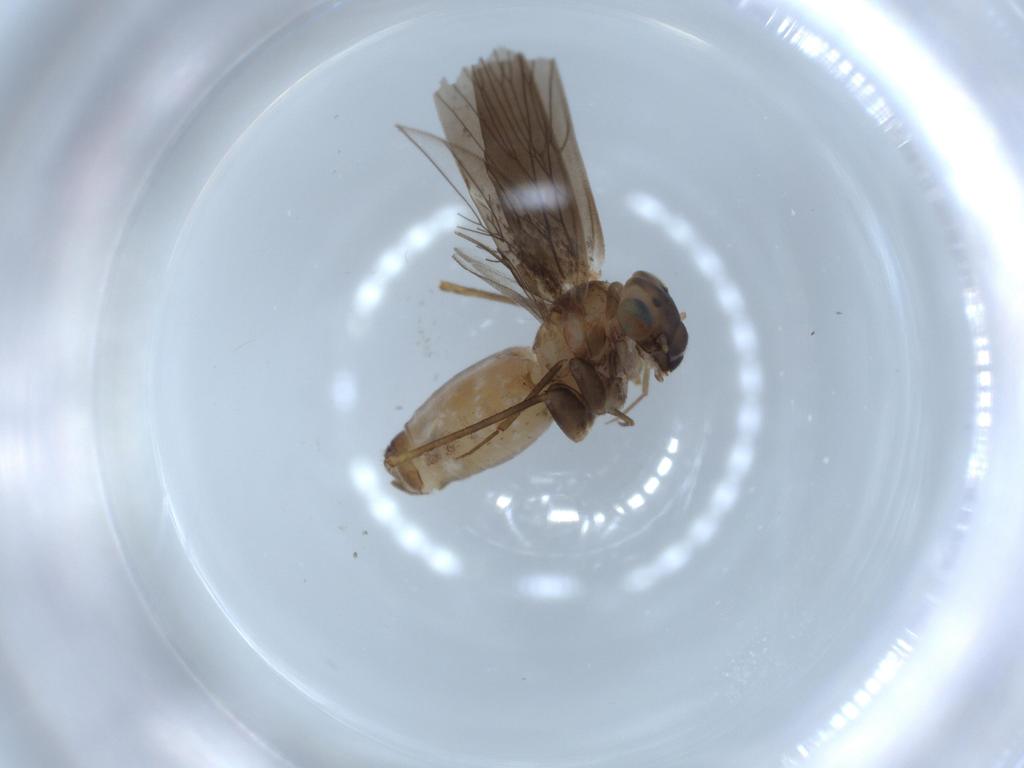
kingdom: Animalia
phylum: Arthropoda
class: Insecta
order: Psocodea
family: Lepidopsocidae
